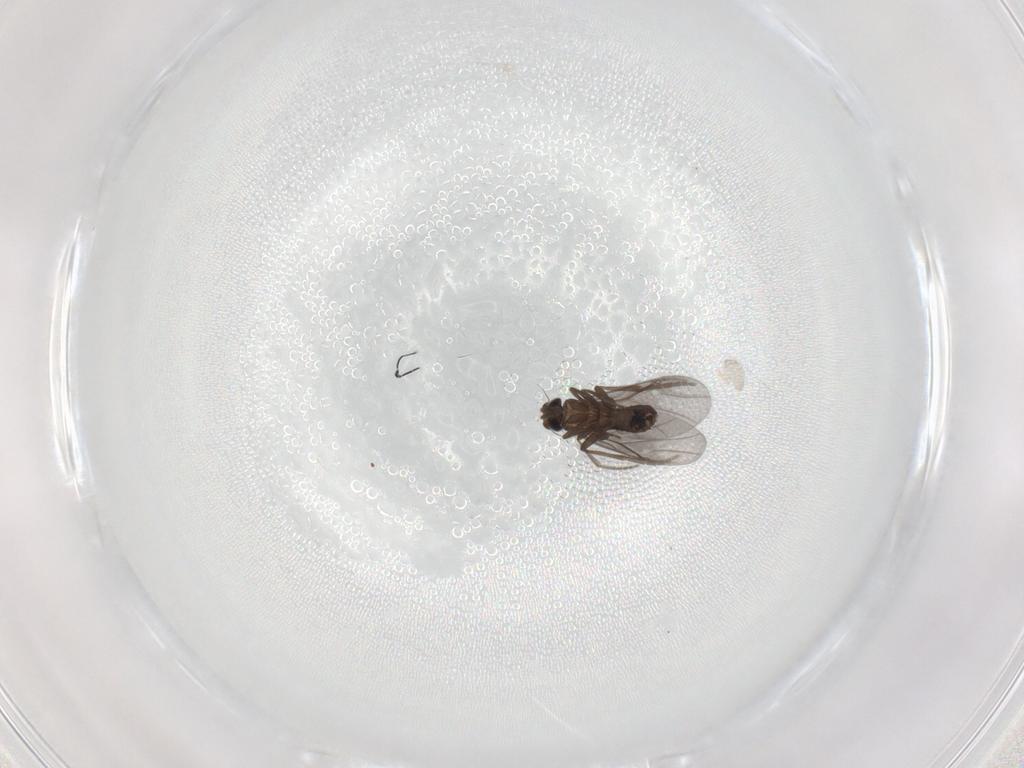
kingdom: Animalia
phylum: Arthropoda
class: Insecta
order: Diptera
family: Phoridae
